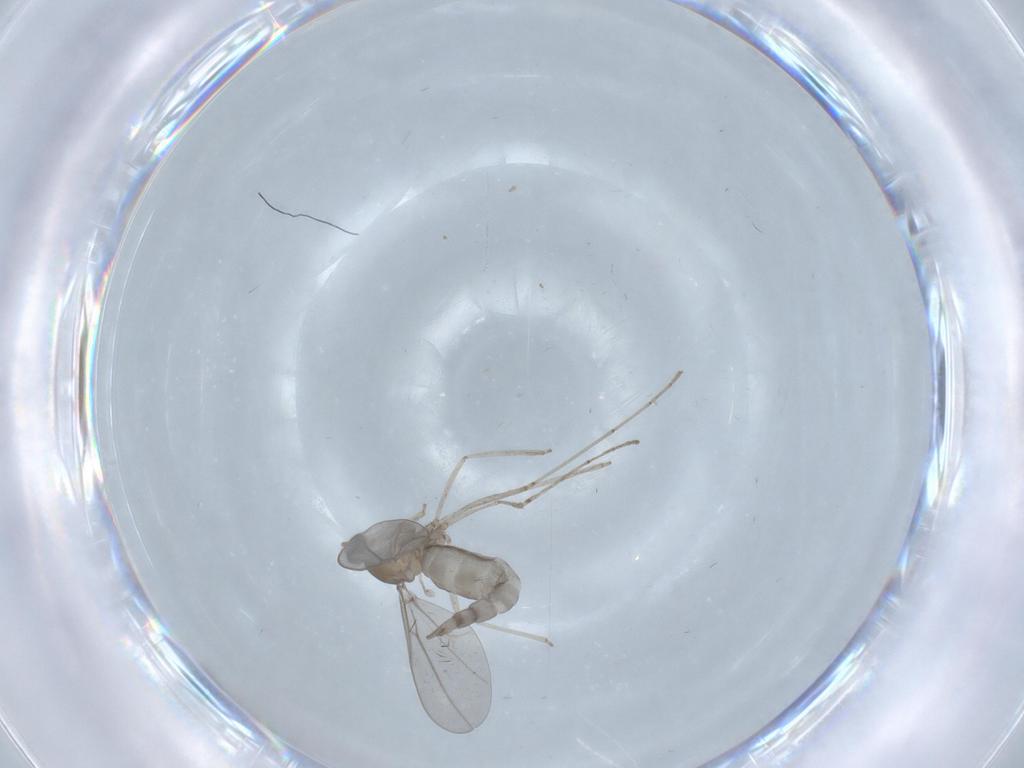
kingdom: Animalia
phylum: Arthropoda
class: Insecta
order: Diptera
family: Cecidomyiidae
